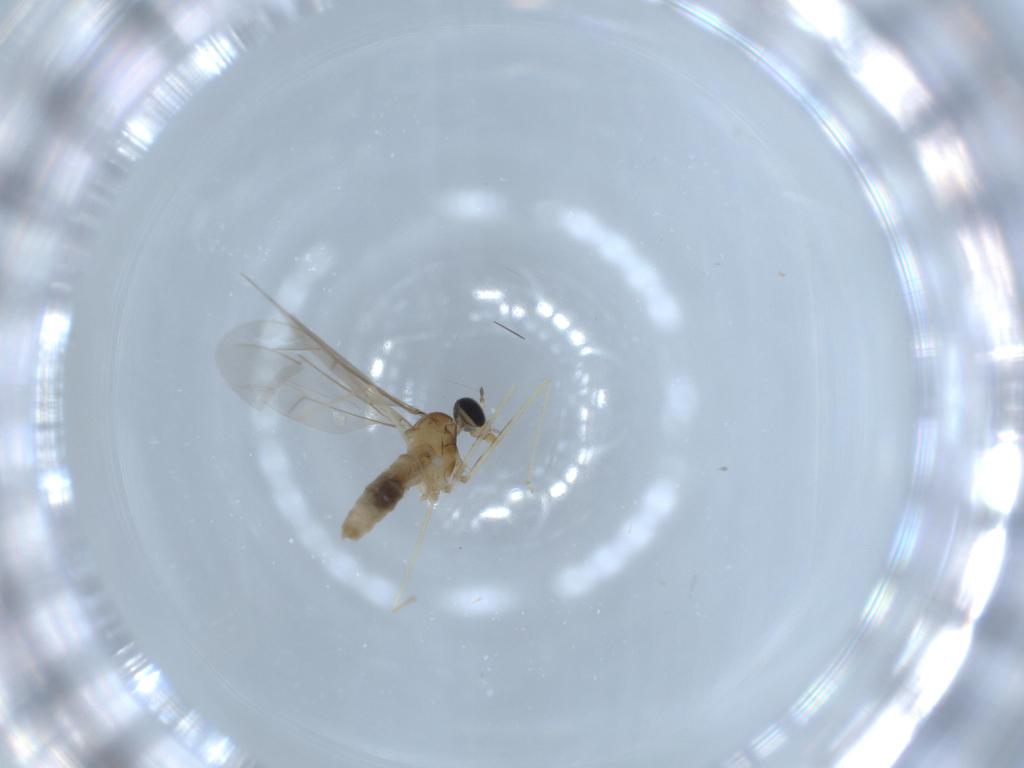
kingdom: Animalia
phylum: Arthropoda
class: Insecta
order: Diptera
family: Cecidomyiidae
